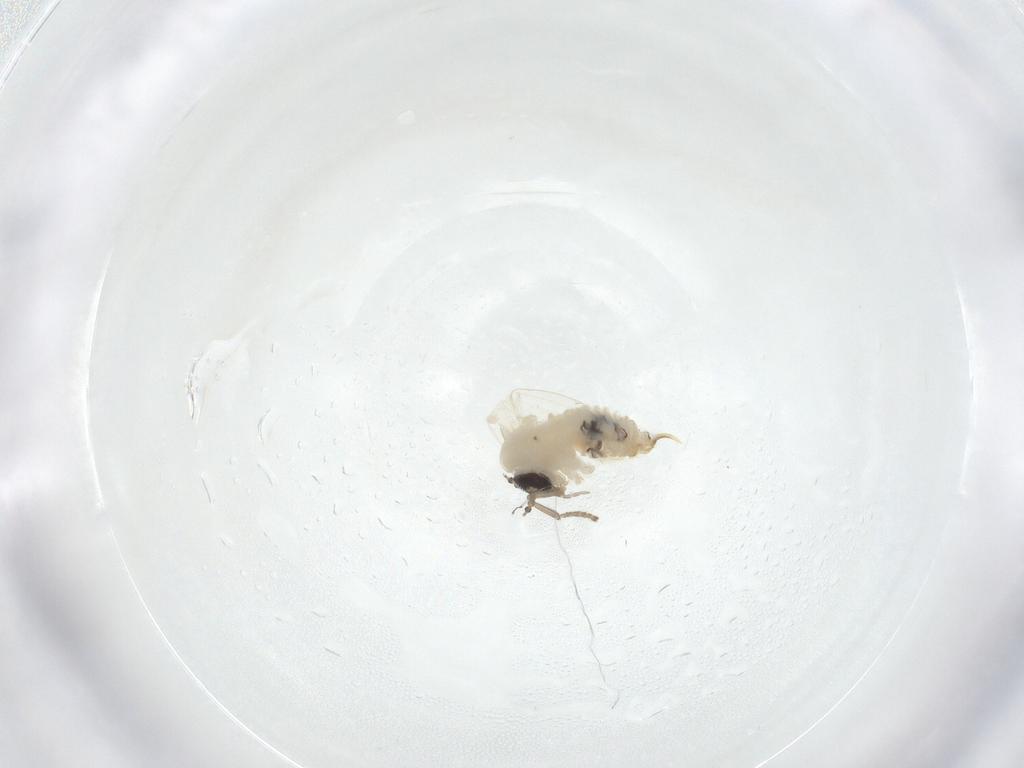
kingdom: Animalia
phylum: Arthropoda
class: Insecta
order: Diptera
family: Psychodidae
